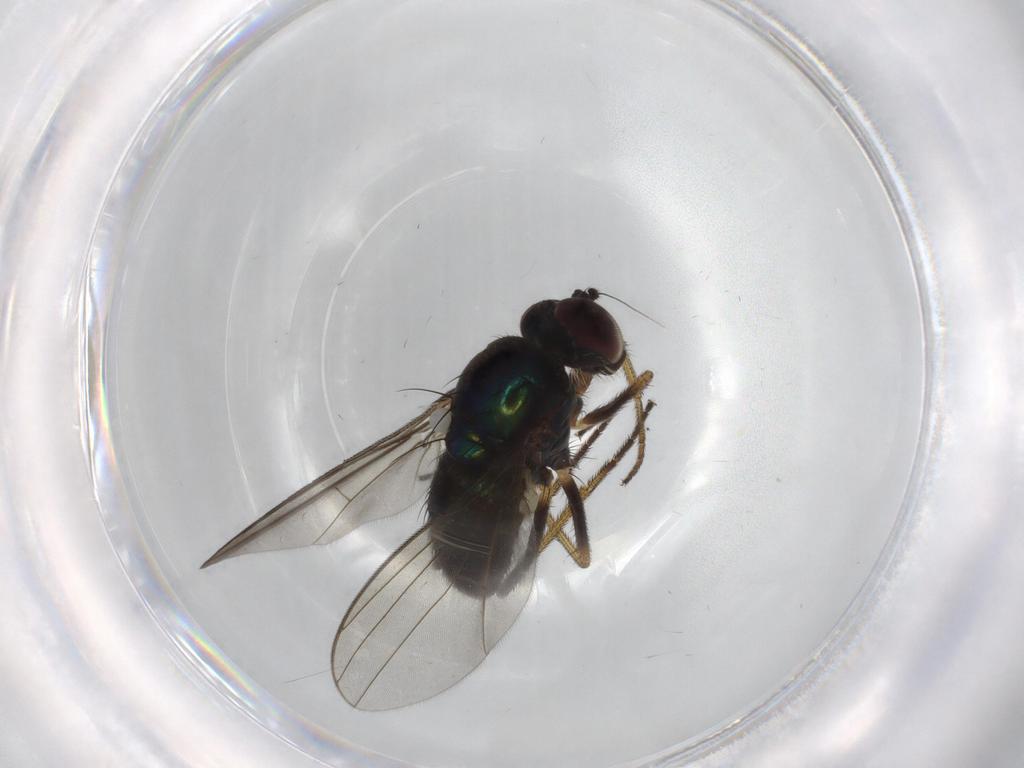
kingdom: Animalia
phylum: Arthropoda
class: Insecta
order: Diptera
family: Dolichopodidae
